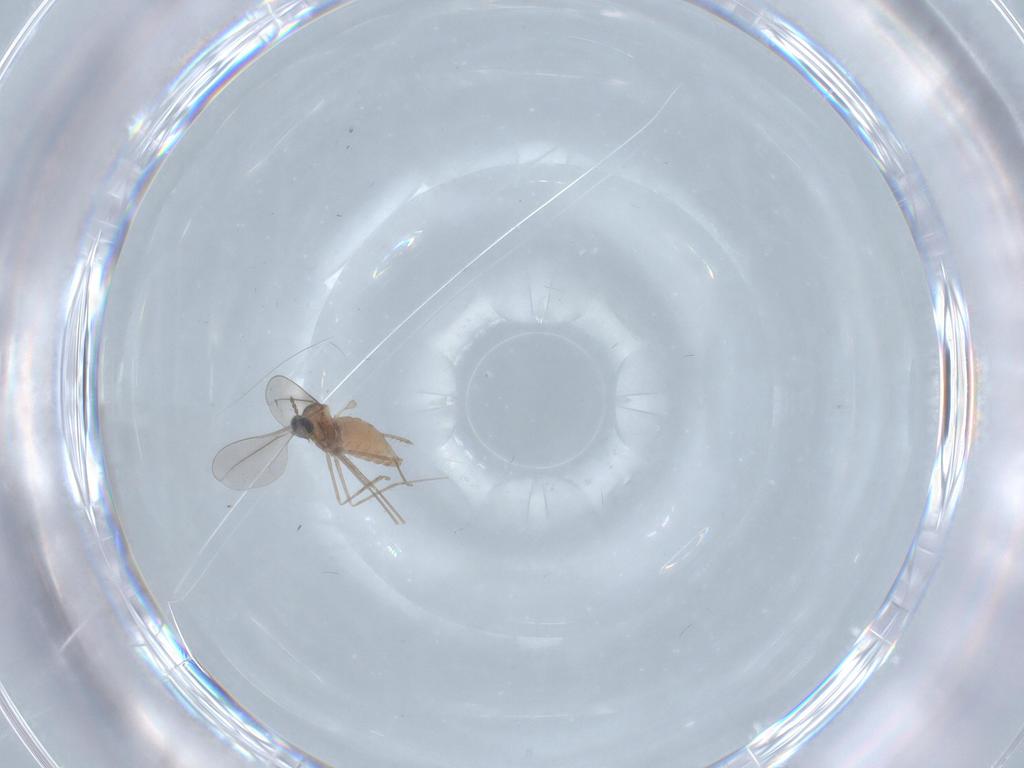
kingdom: Animalia
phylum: Arthropoda
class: Insecta
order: Diptera
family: Cecidomyiidae
